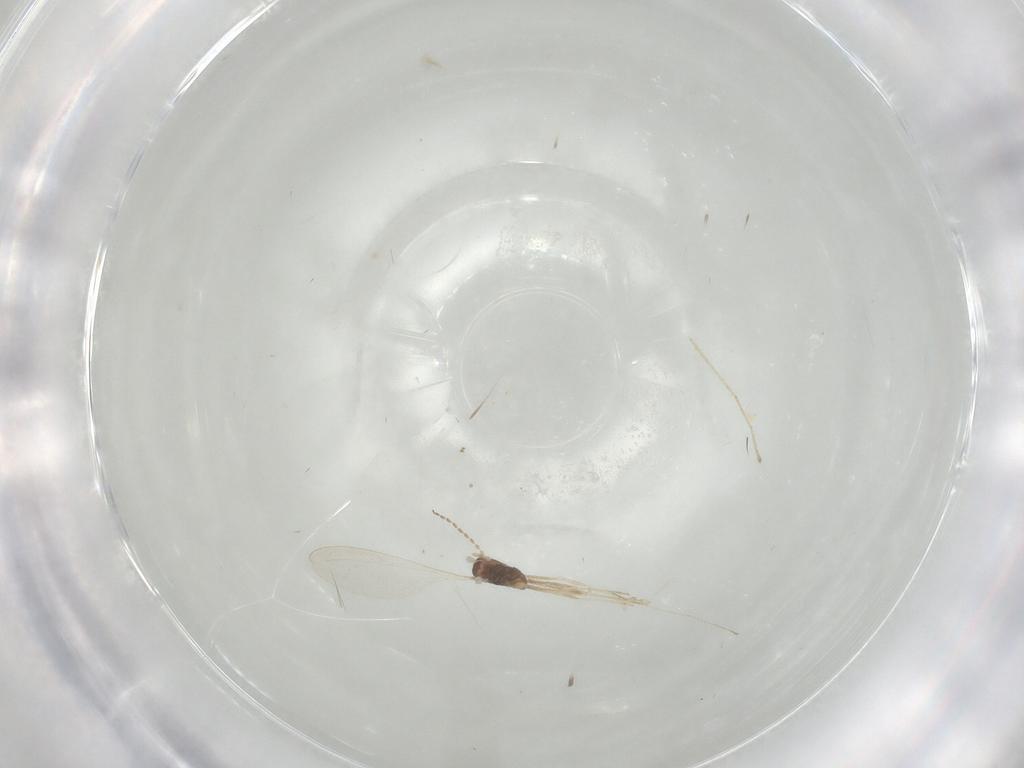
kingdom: Animalia
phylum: Arthropoda
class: Insecta
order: Diptera
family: Cecidomyiidae
